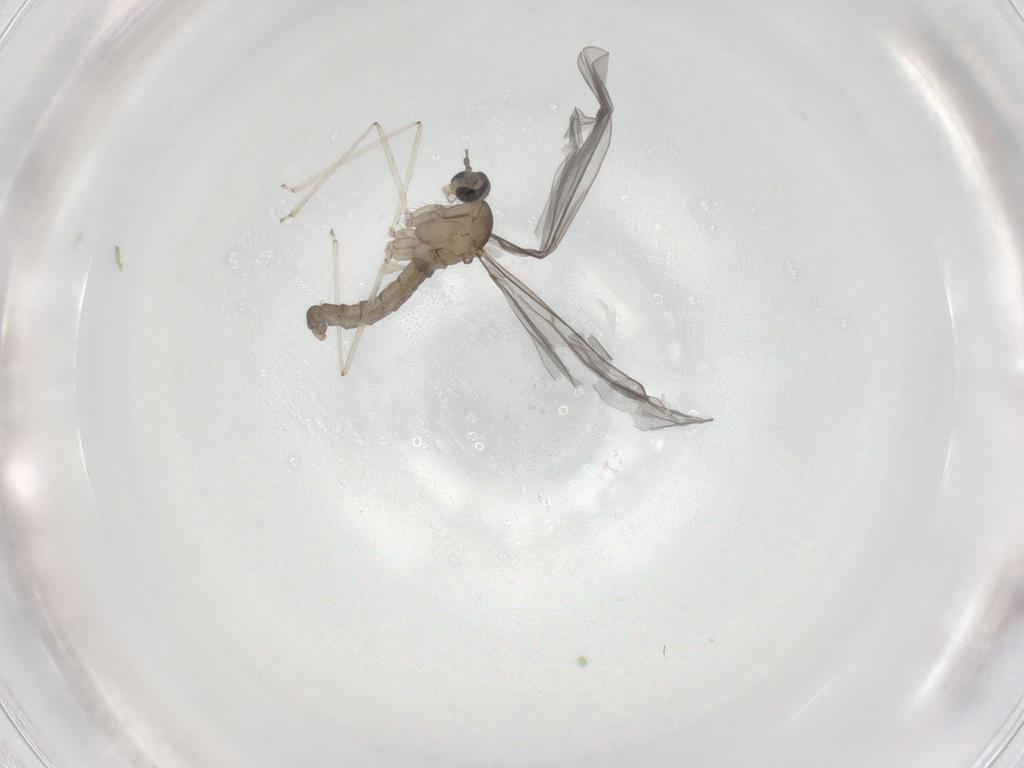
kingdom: Animalia
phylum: Arthropoda
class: Insecta
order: Diptera
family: Cecidomyiidae
